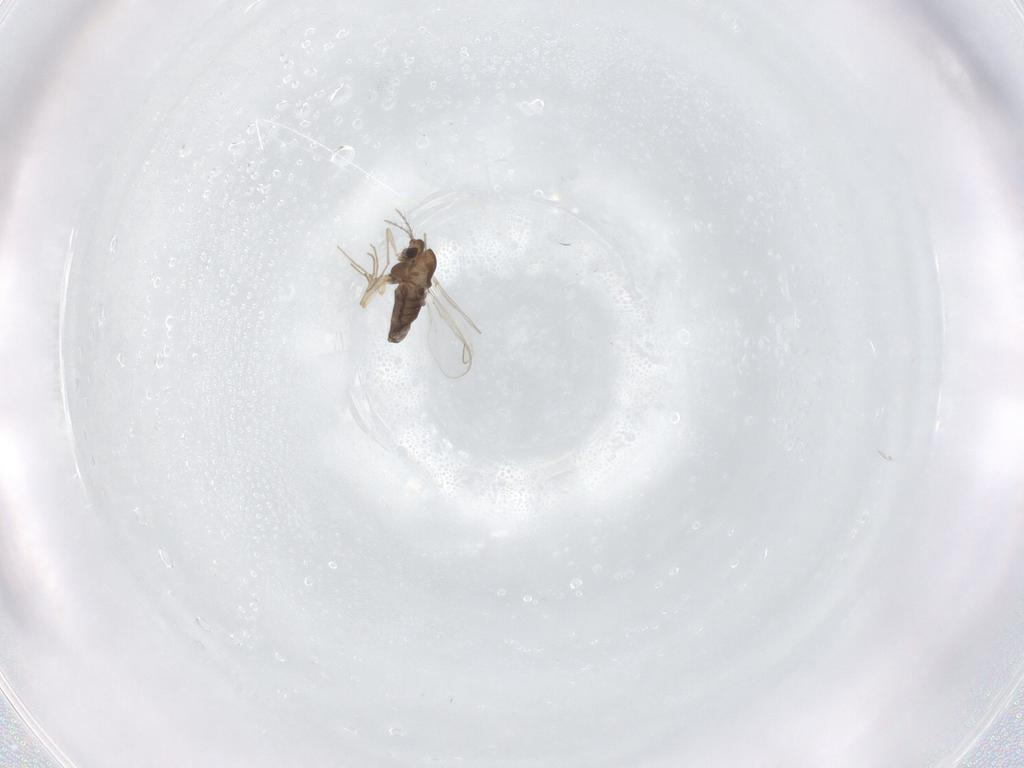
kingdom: Animalia
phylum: Arthropoda
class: Insecta
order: Diptera
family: Chironomidae
